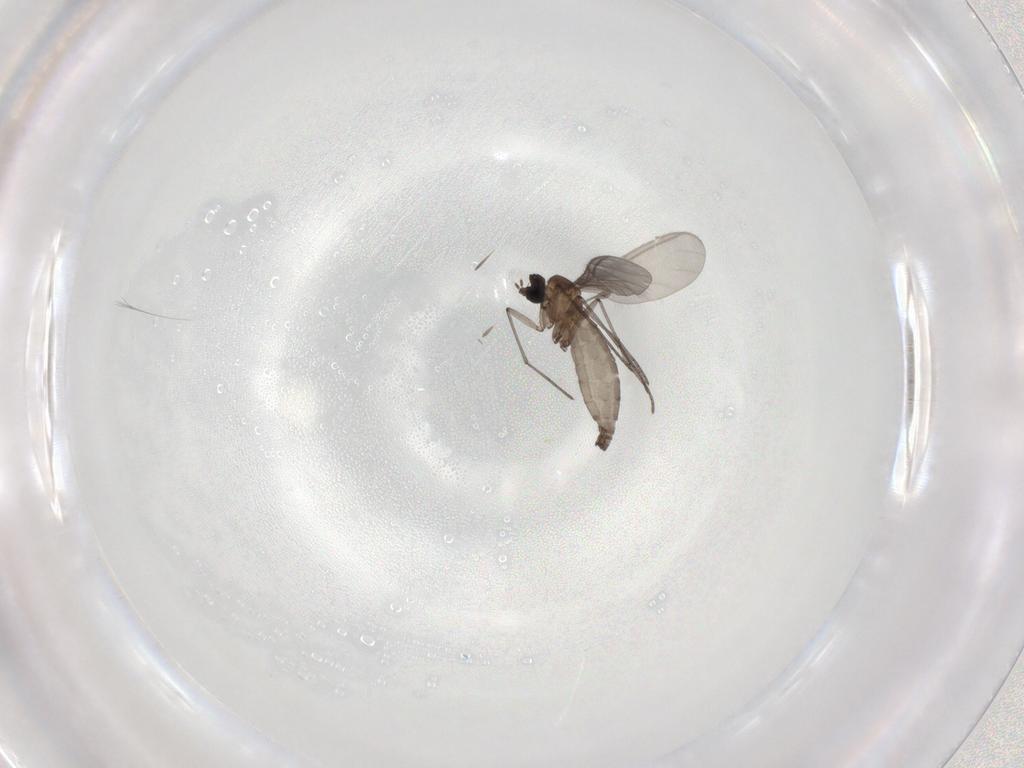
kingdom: Animalia
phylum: Arthropoda
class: Insecta
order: Diptera
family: Sciaridae
